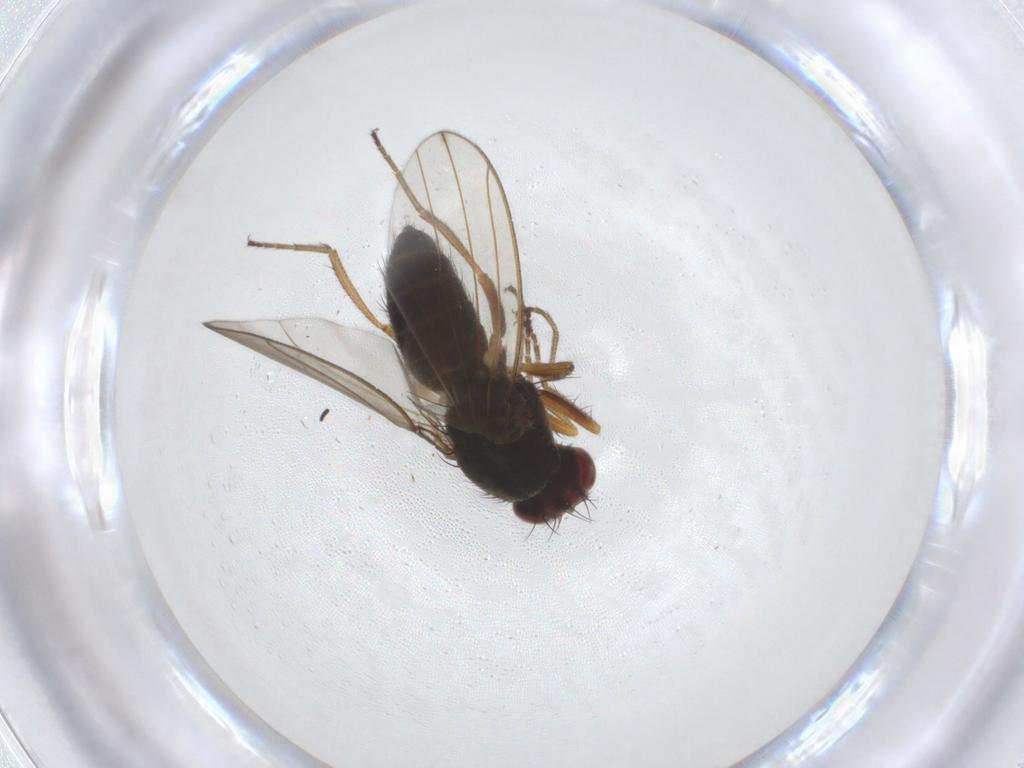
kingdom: Animalia
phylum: Arthropoda
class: Insecta
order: Diptera
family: Drosophilidae
